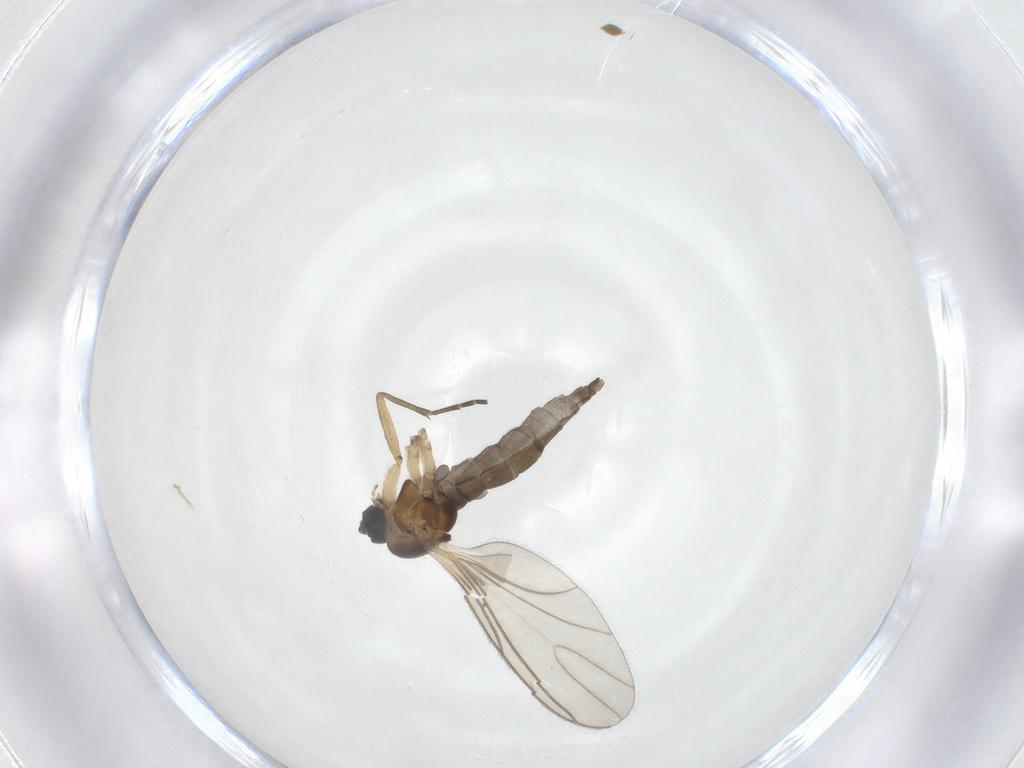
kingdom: Animalia
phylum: Arthropoda
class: Insecta
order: Diptera
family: Sciaridae
